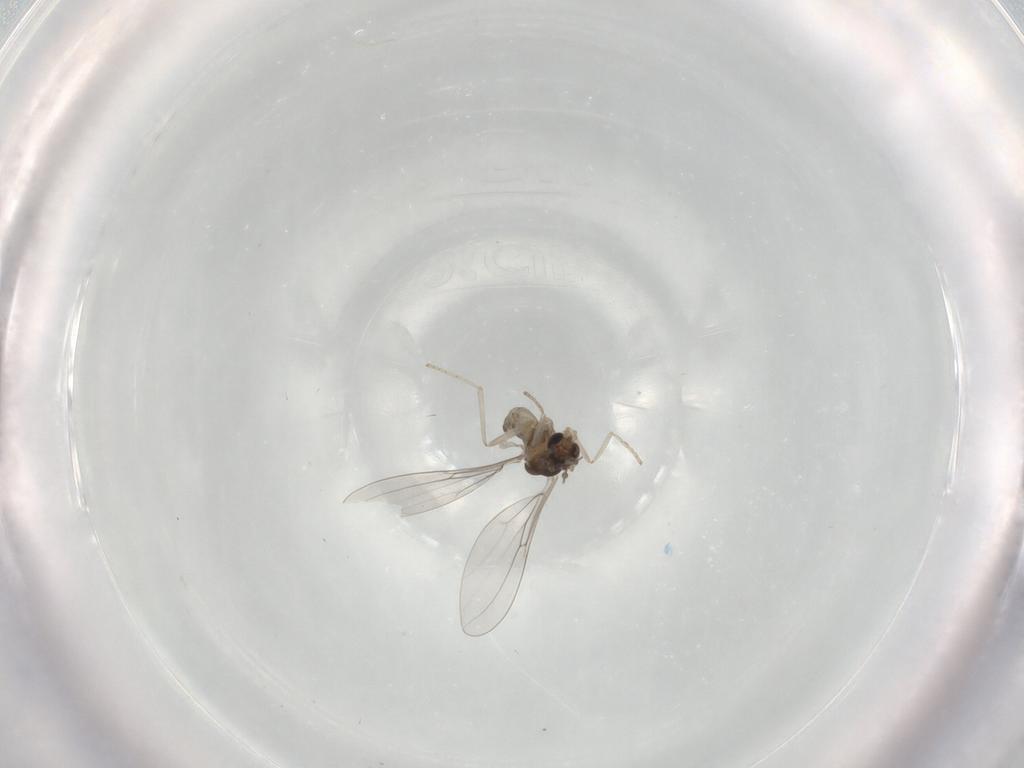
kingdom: Animalia
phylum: Arthropoda
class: Insecta
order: Diptera
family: Cecidomyiidae
